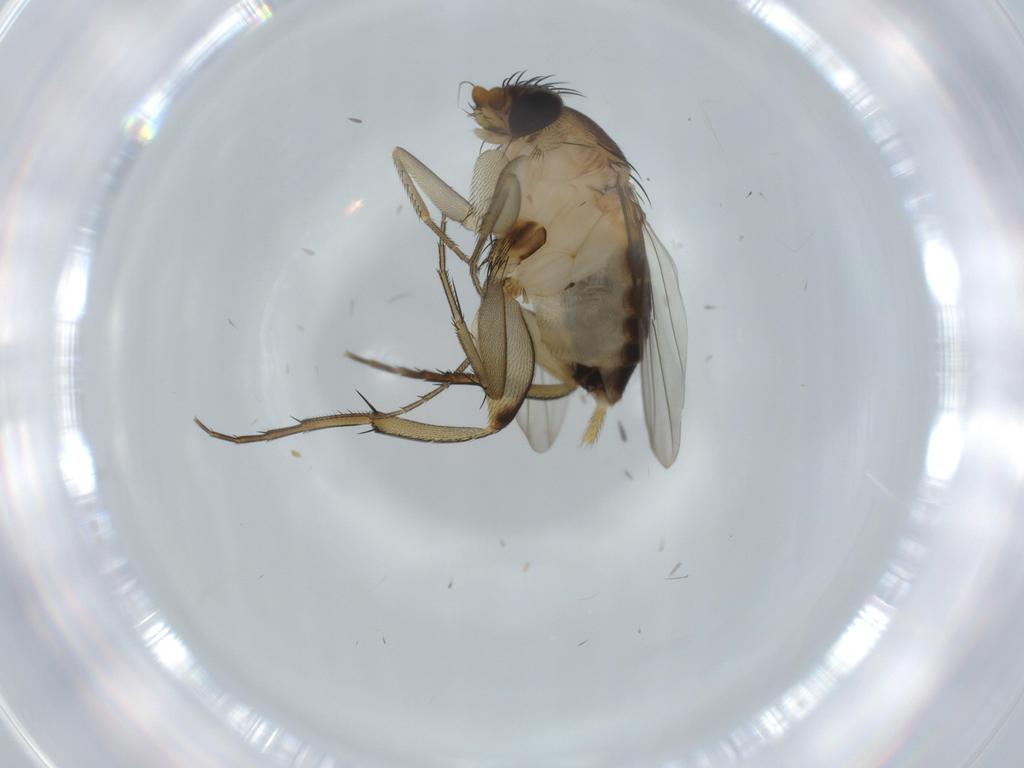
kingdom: Animalia
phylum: Arthropoda
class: Insecta
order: Diptera
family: Phoridae
